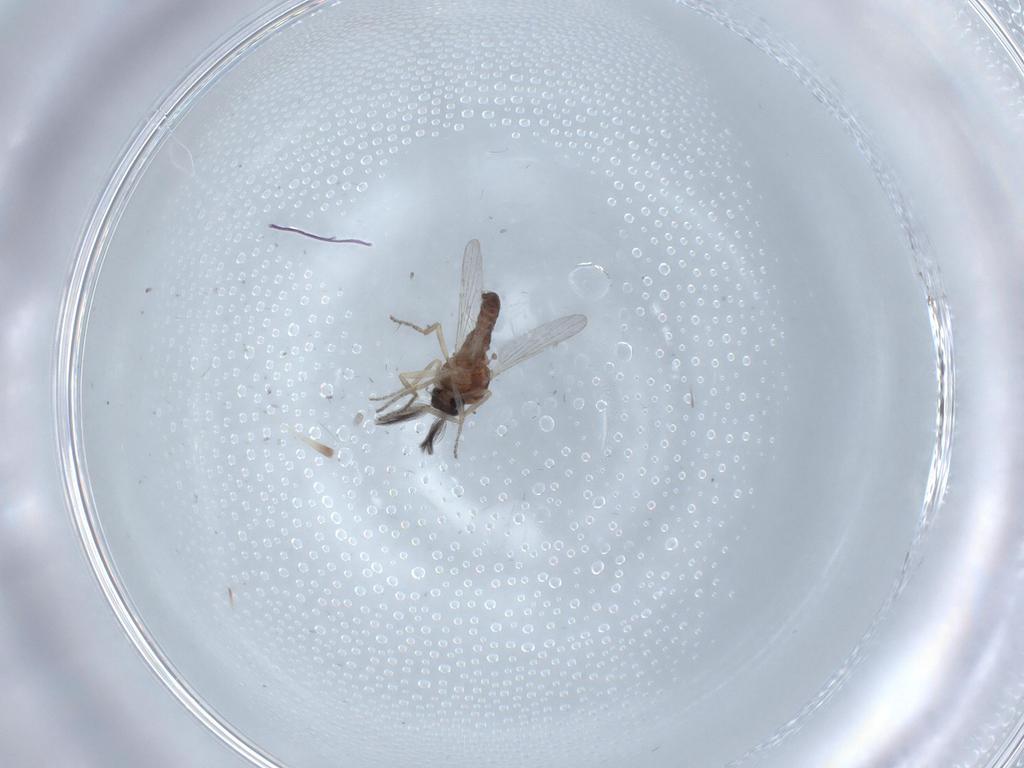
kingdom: Animalia
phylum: Arthropoda
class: Insecta
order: Diptera
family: Ceratopogonidae
